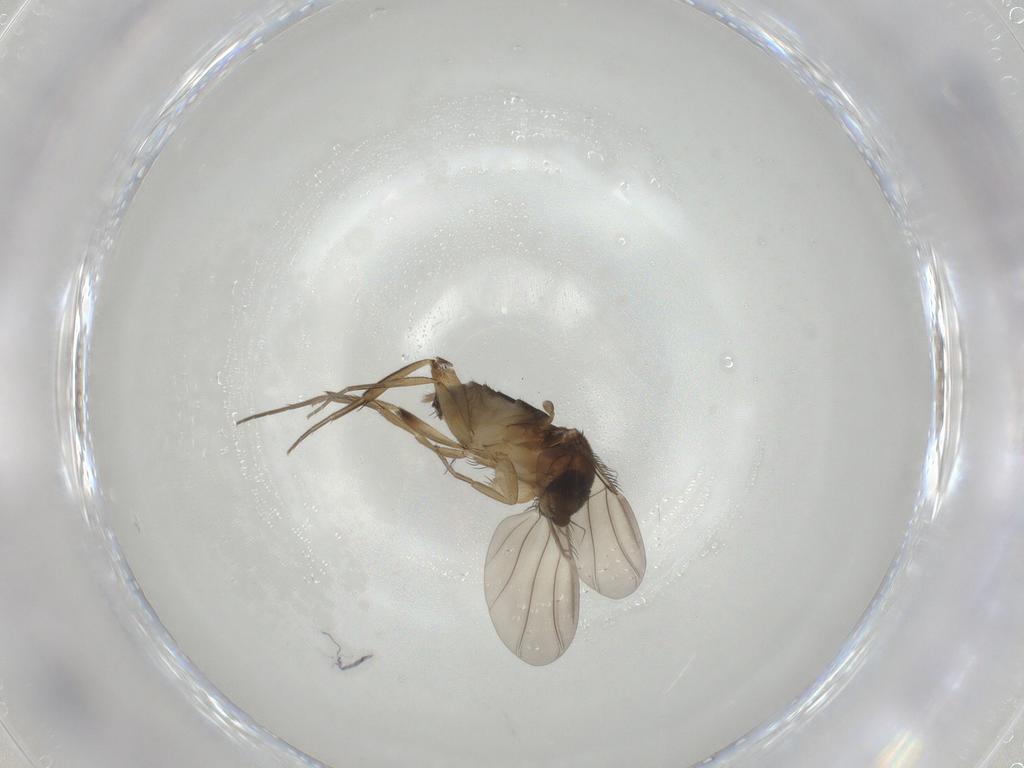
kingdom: Animalia
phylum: Arthropoda
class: Insecta
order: Diptera
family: Phoridae
